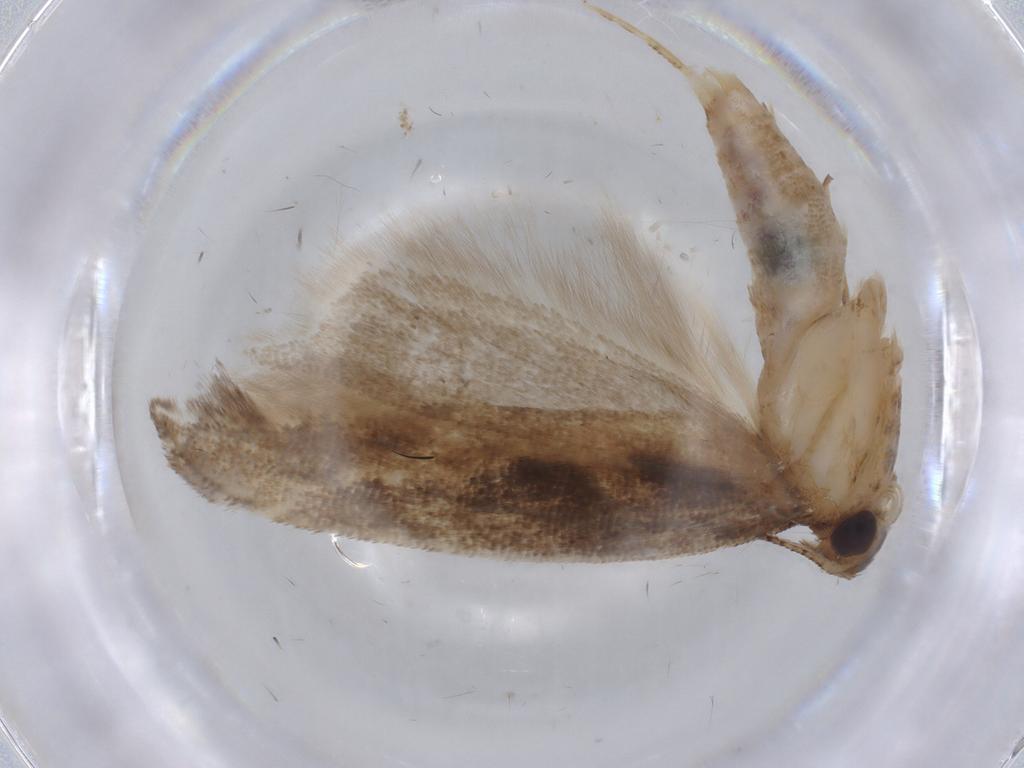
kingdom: Animalia
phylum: Arthropoda
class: Insecta
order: Lepidoptera
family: Gelechiidae
